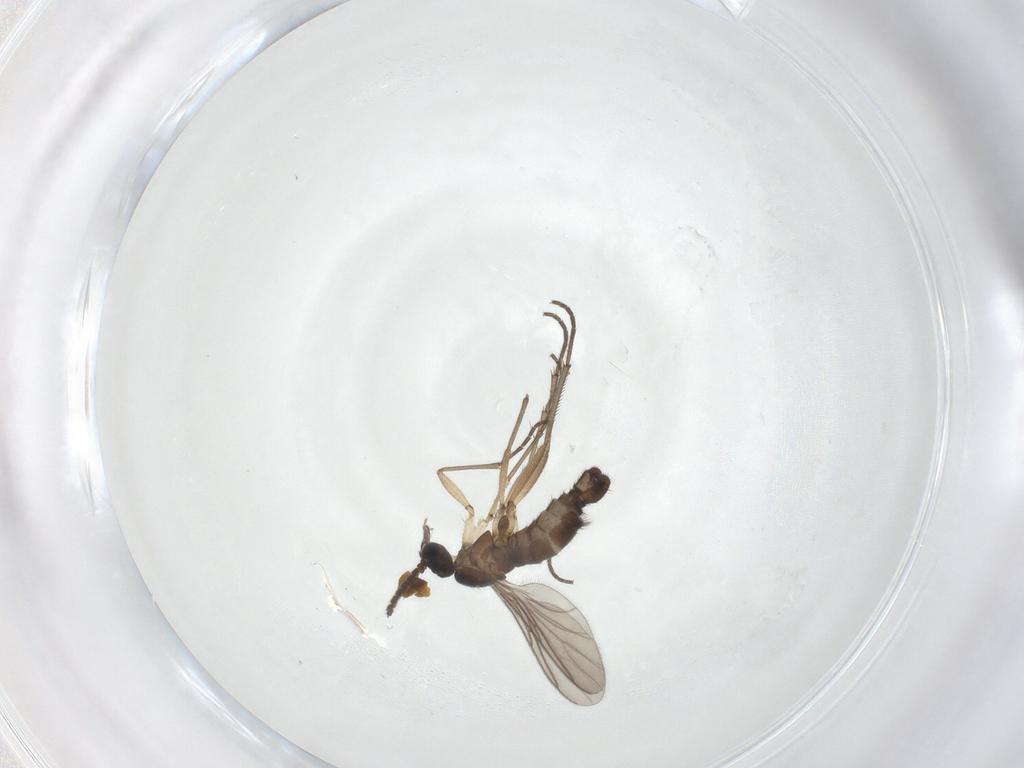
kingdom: Animalia
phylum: Arthropoda
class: Insecta
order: Diptera
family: Sciaridae
